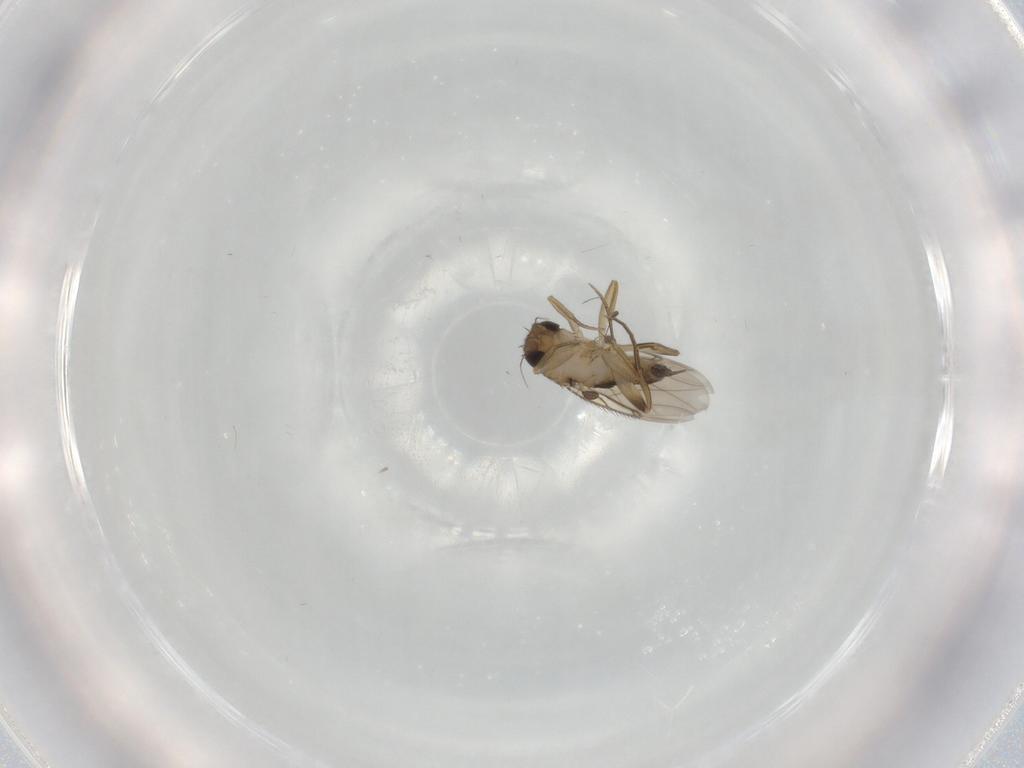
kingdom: Animalia
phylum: Arthropoda
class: Insecta
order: Diptera
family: Phoridae
